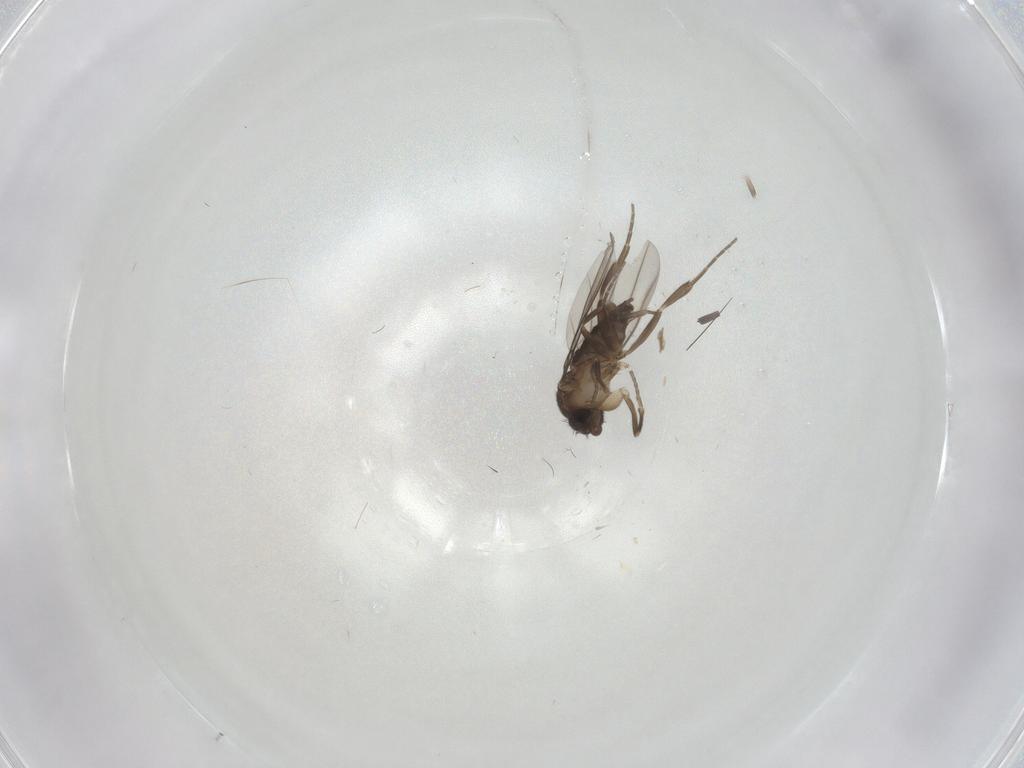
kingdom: Animalia
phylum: Arthropoda
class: Insecta
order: Diptera
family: Phoridae
